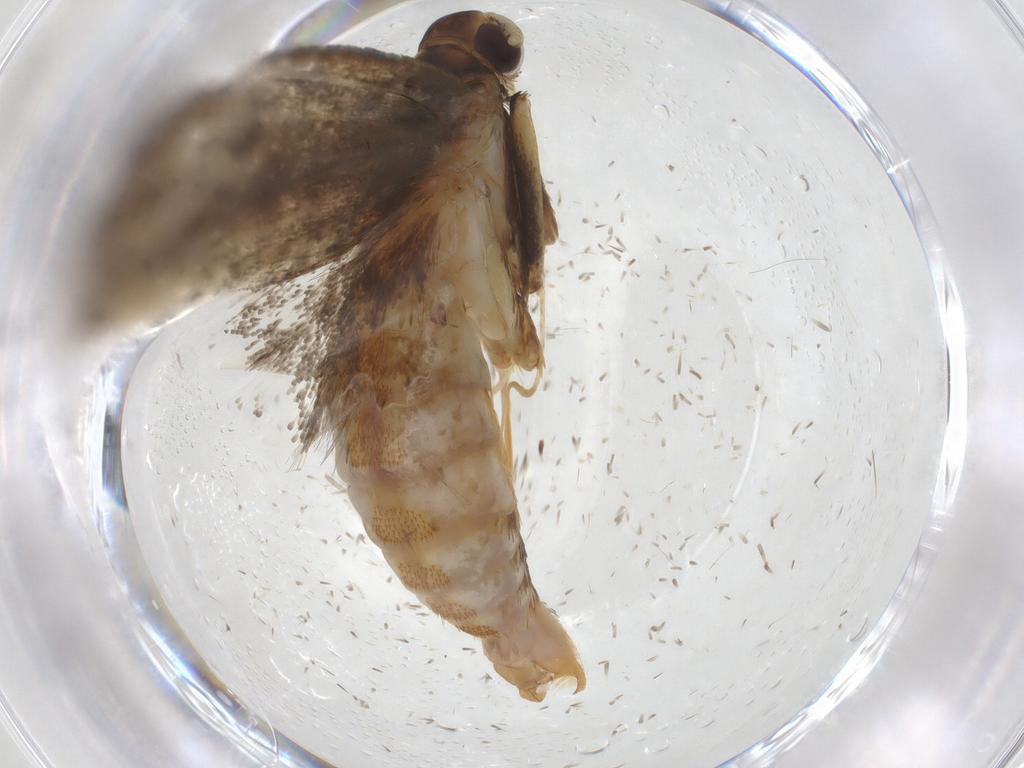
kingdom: Animalia
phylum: Arthropoda
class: Insecta
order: Lepidoptera
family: Lecithoceridae
